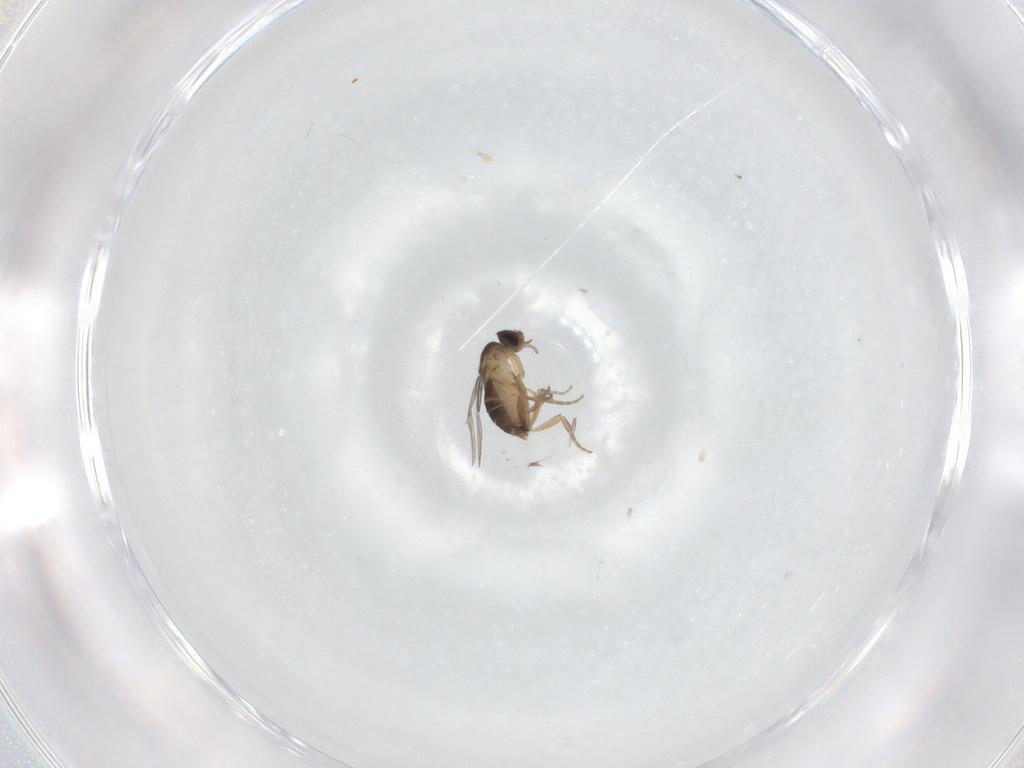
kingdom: Animalia
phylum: Arthropoda
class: Insecta
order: Diptera
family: Phoridae
